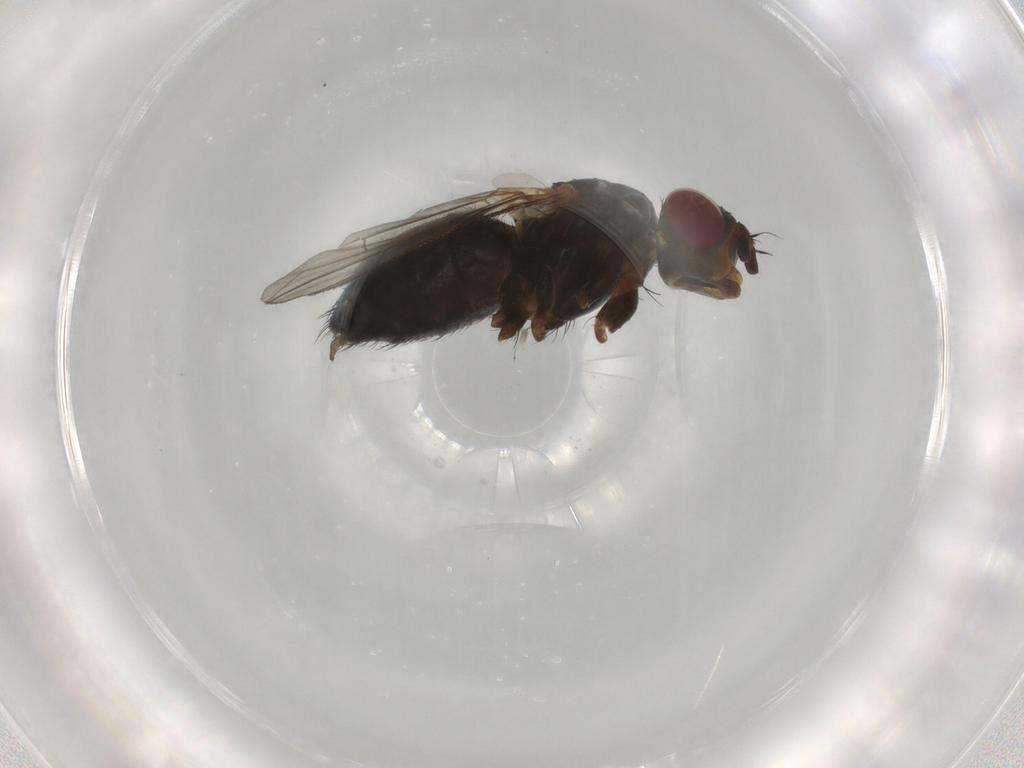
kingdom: Animalia
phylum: Arthropoda
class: Insecta
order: Diptera
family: Calliphoridae
